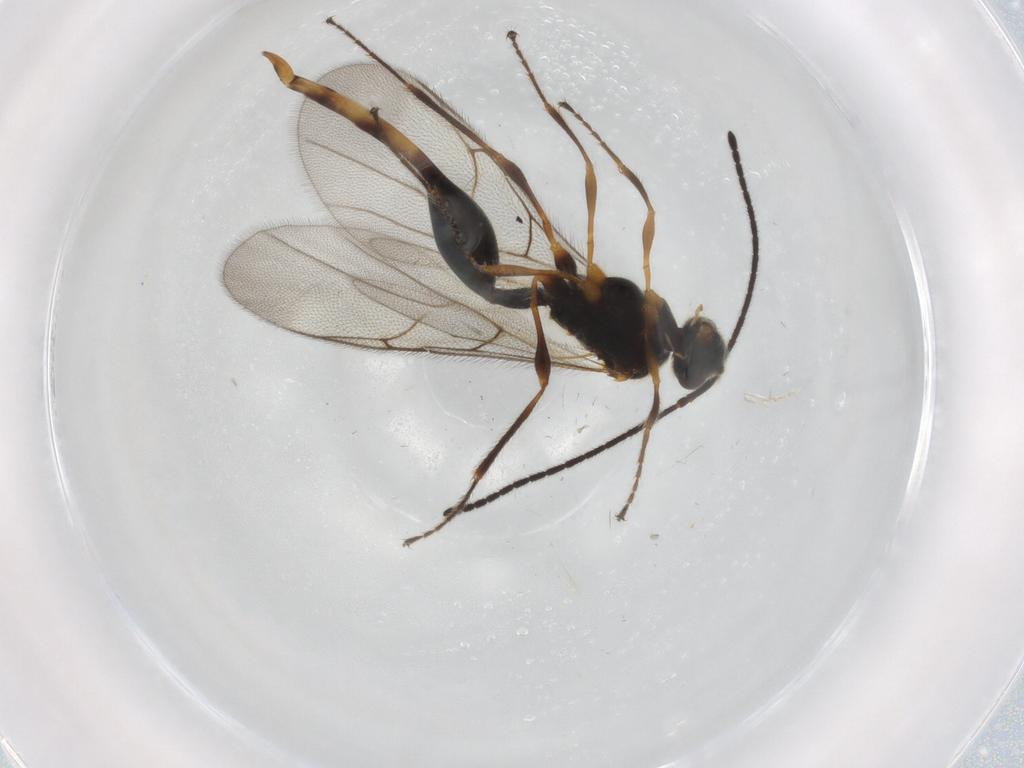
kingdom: Animalia
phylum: Arthropoda
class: Insecta
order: Hymenoptera
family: Diapriidae
